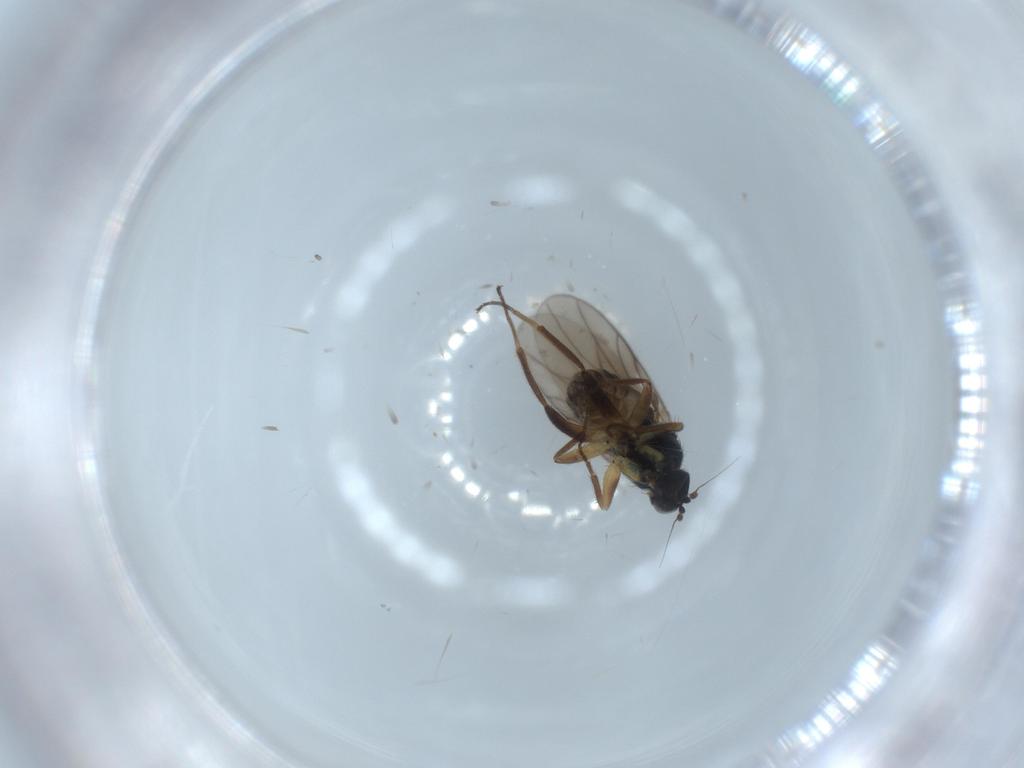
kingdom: Animalia
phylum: Arthropoda
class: Insecta
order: Diptera
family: Hybotidae
